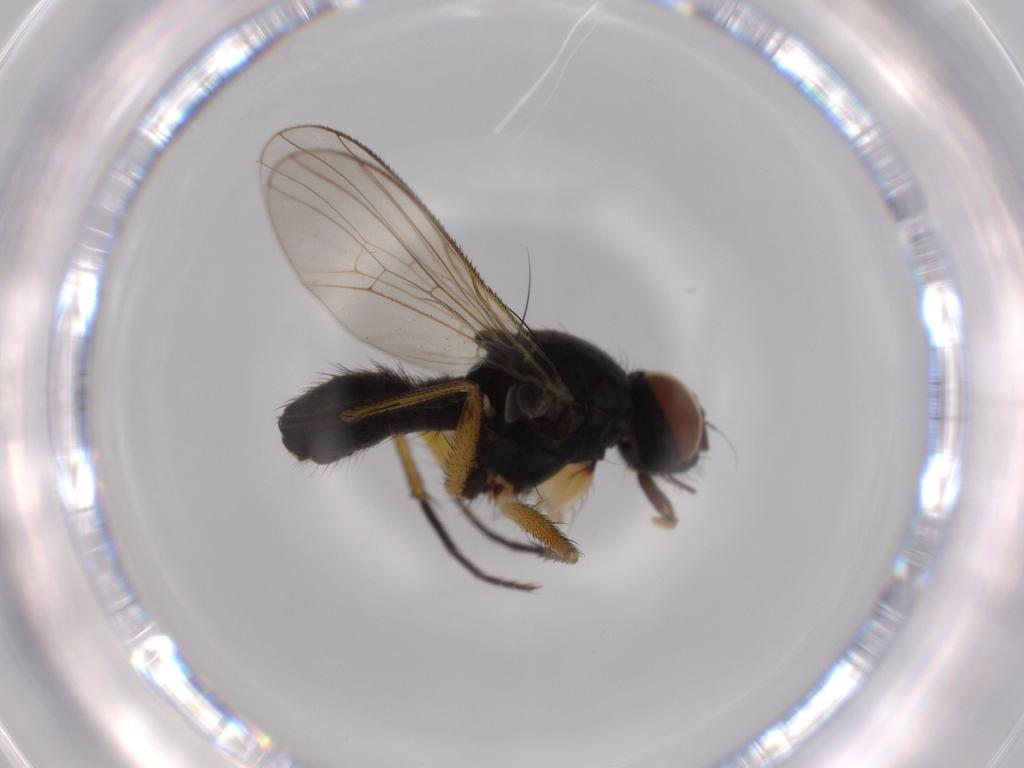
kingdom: Animalia
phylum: Arthropoda
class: Insecta
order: Diptera
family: Muscidae
